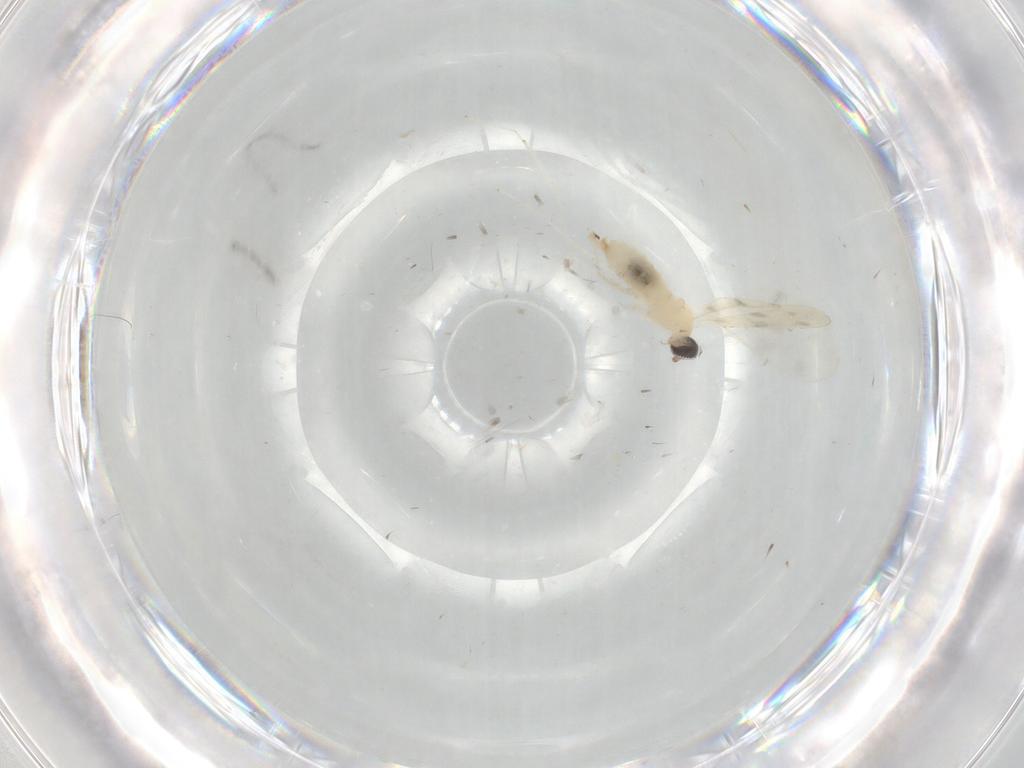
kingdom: Animalia
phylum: Arthropoda
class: Insecta
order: Diptera
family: Cecidomyiidae
